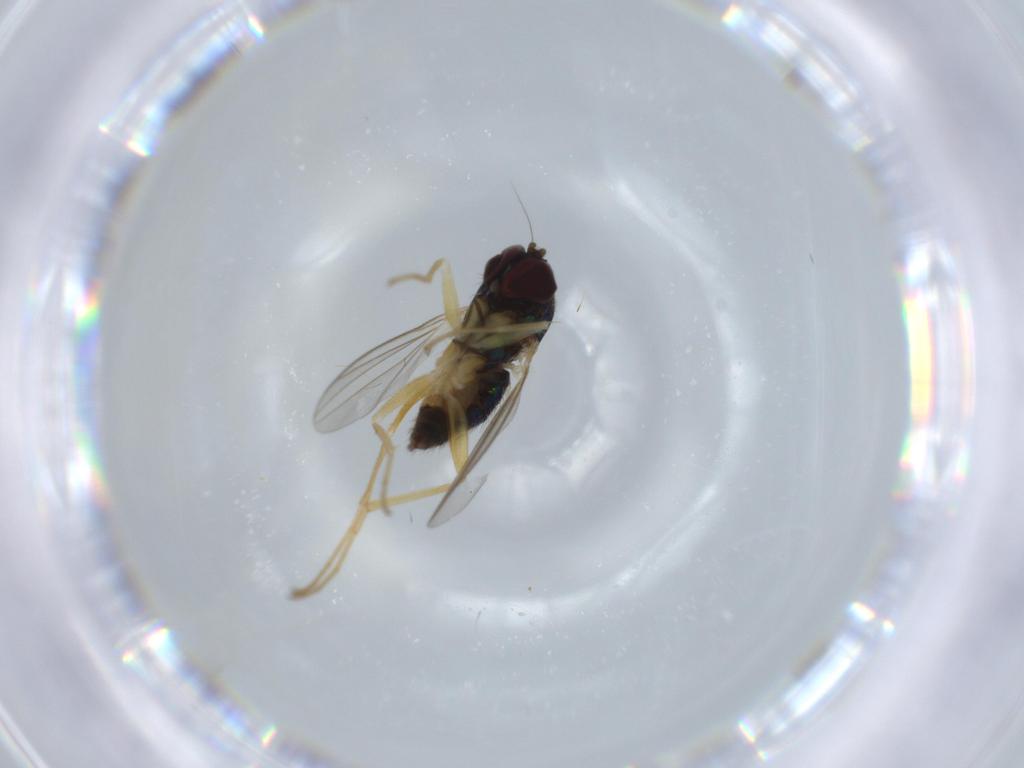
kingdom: Animalia
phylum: Arthropoda
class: Insecta
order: Diptera
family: Dolichopodidae
